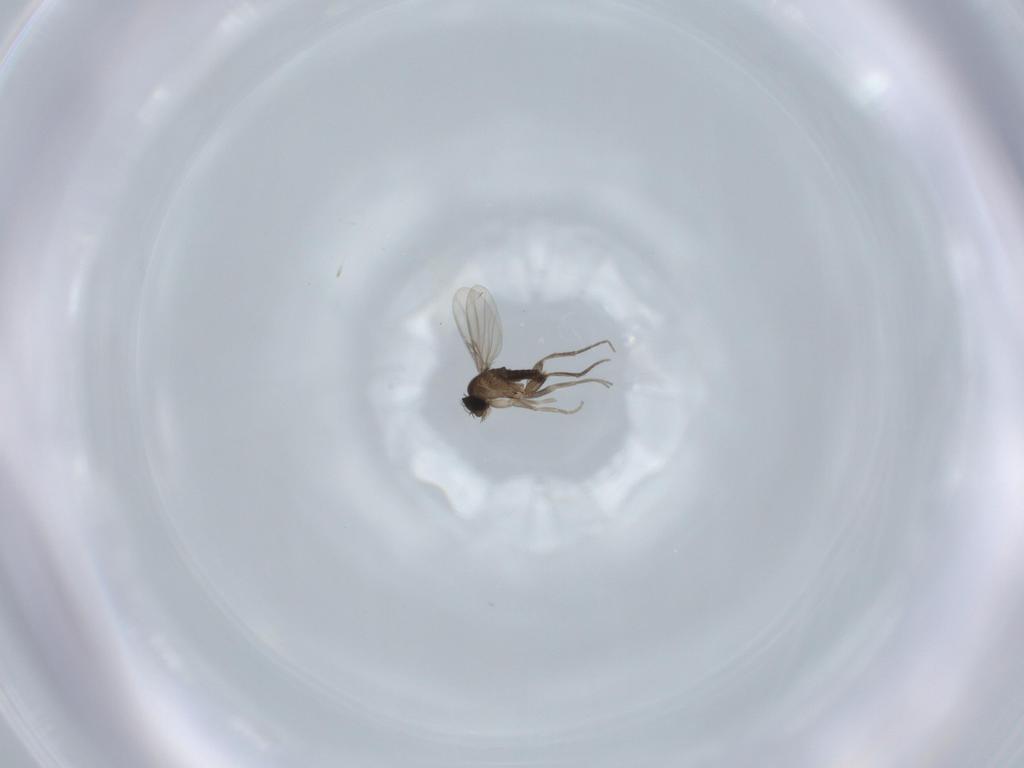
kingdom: Animalia
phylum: Arthropoda
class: Insecta
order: Diptera
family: Phoridae
